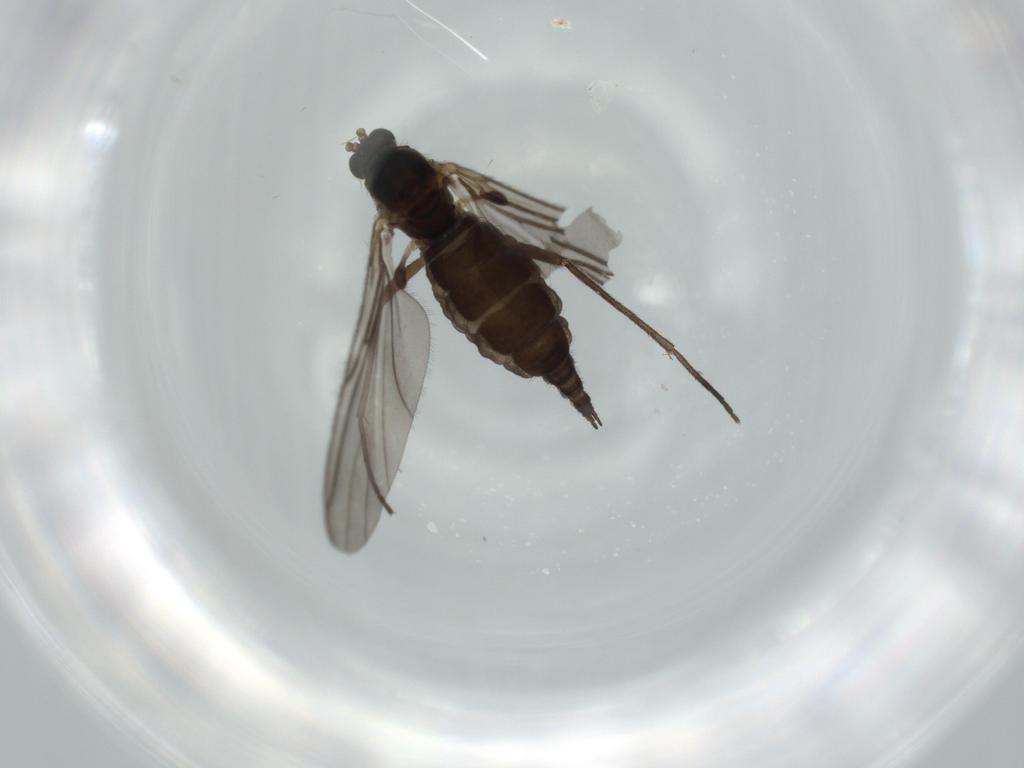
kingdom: Animalia
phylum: Arthropoda
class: Insecta
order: Diptera
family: Sciaridae
